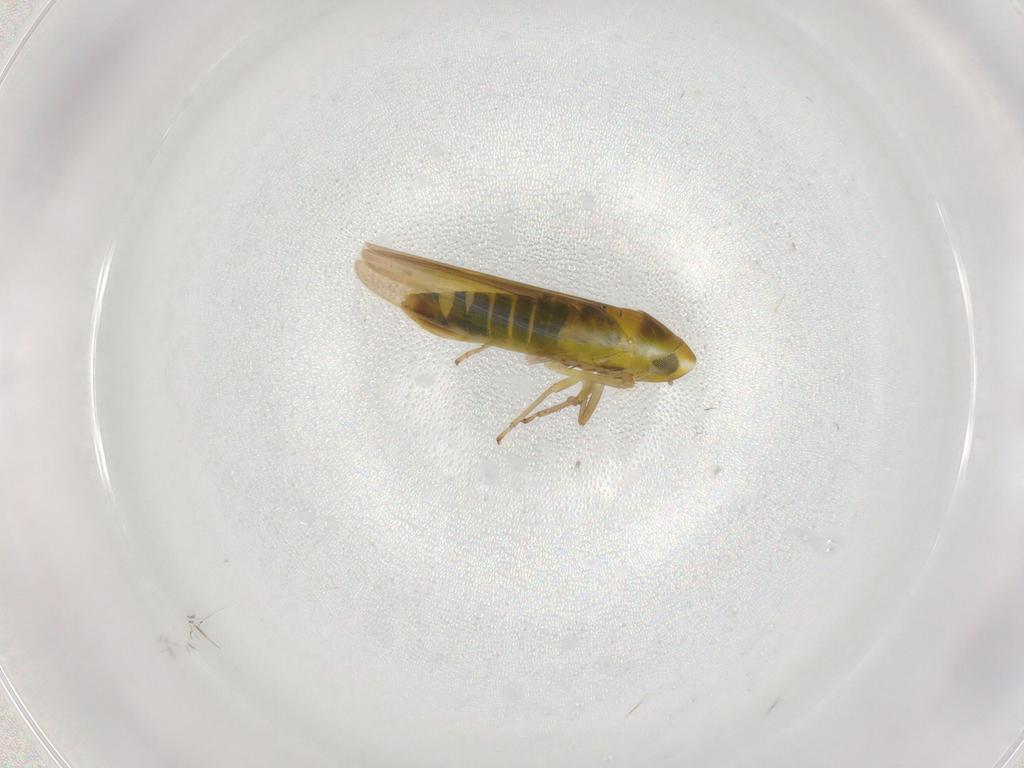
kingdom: Animalia
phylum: Arthropoda
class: Insecta
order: Hemiptera
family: Cicadellidae
